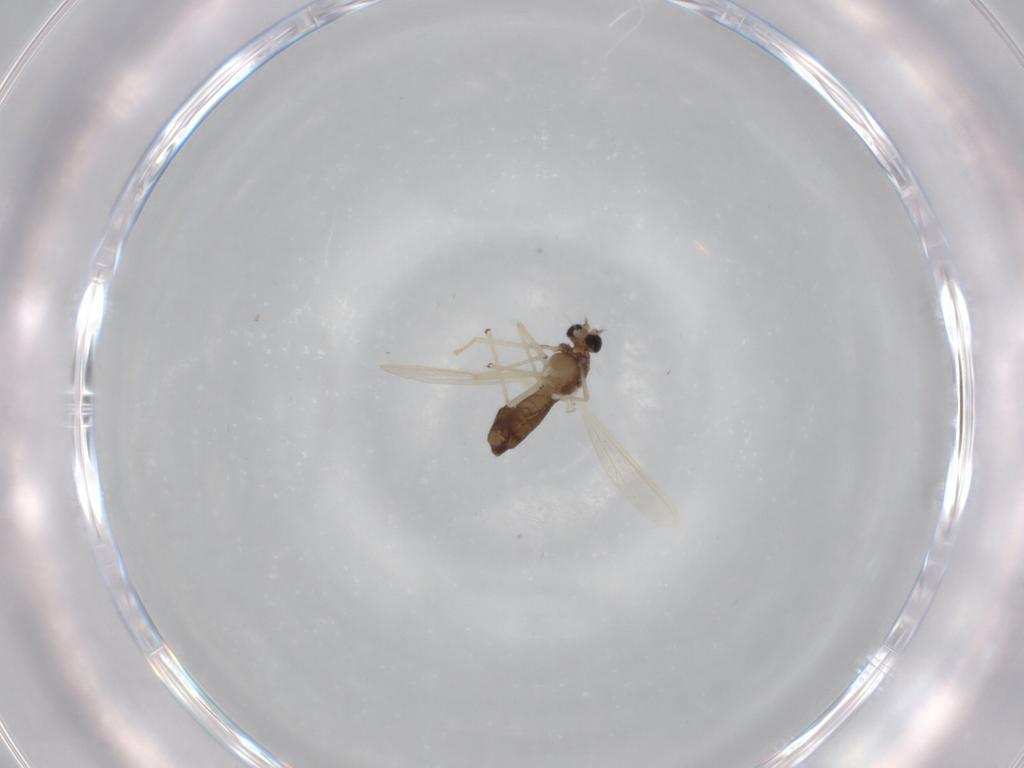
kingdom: Animalia
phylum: Arthropoda
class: Insecta
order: Diptera
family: Chironomidae
